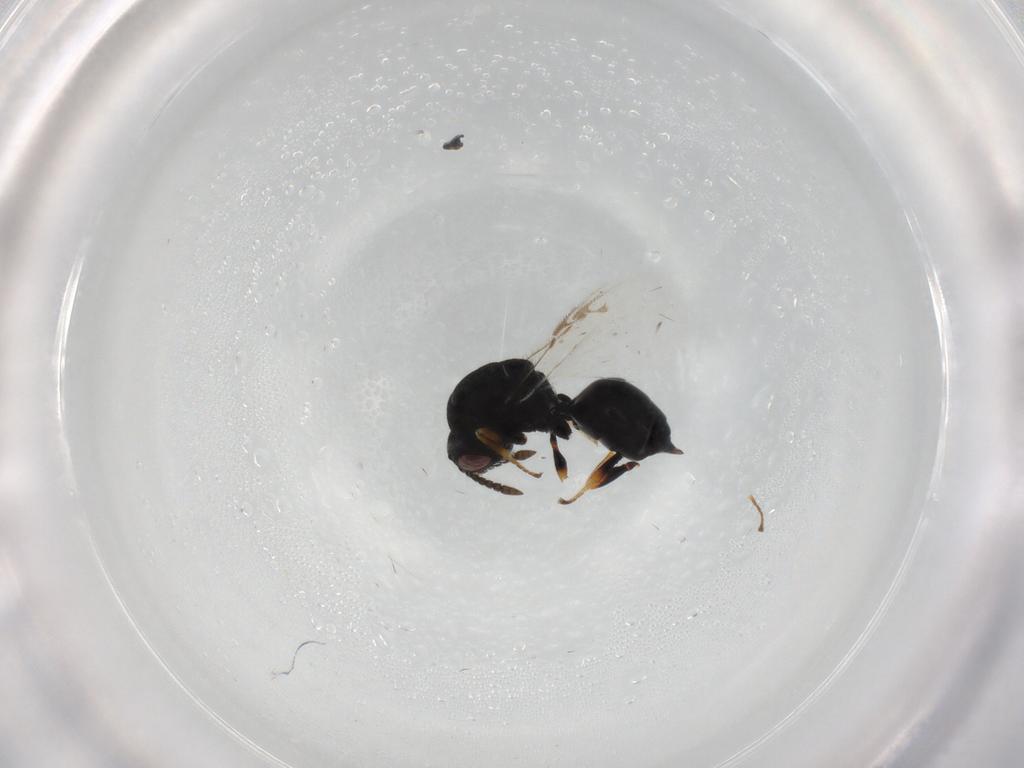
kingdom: Animalia
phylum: Arthropoda
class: Insecta
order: Hymenoptera
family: Eurytomidae
